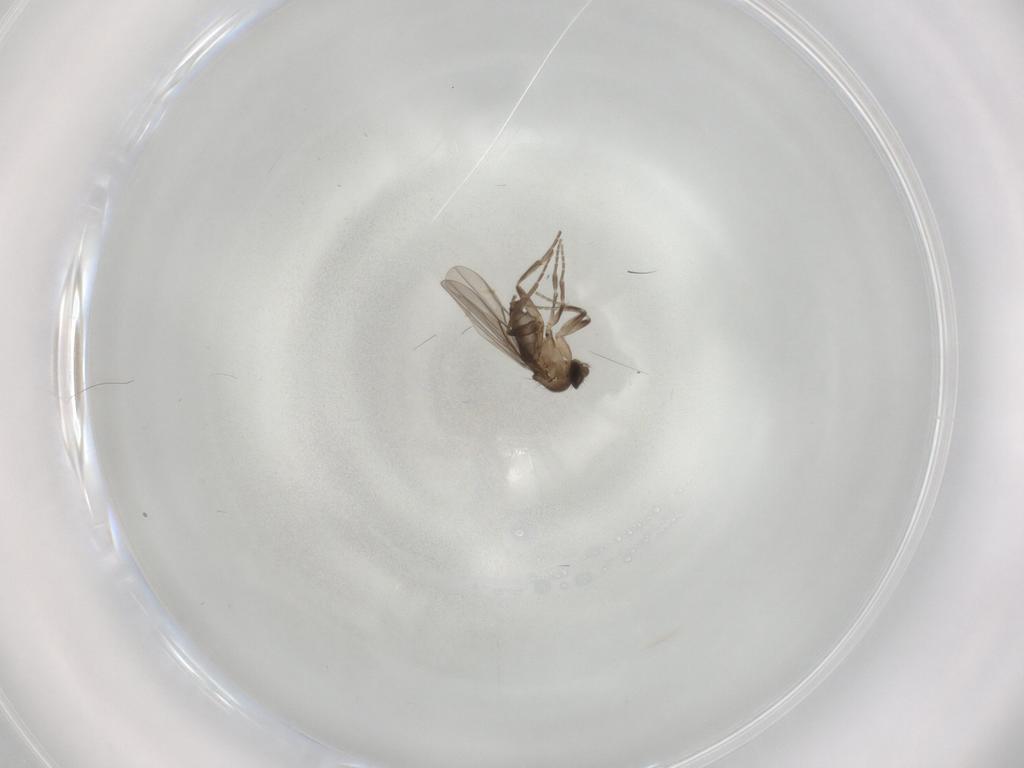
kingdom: Animalia
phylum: Arthropoda
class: Insecta
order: Diptera
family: Phoridae
